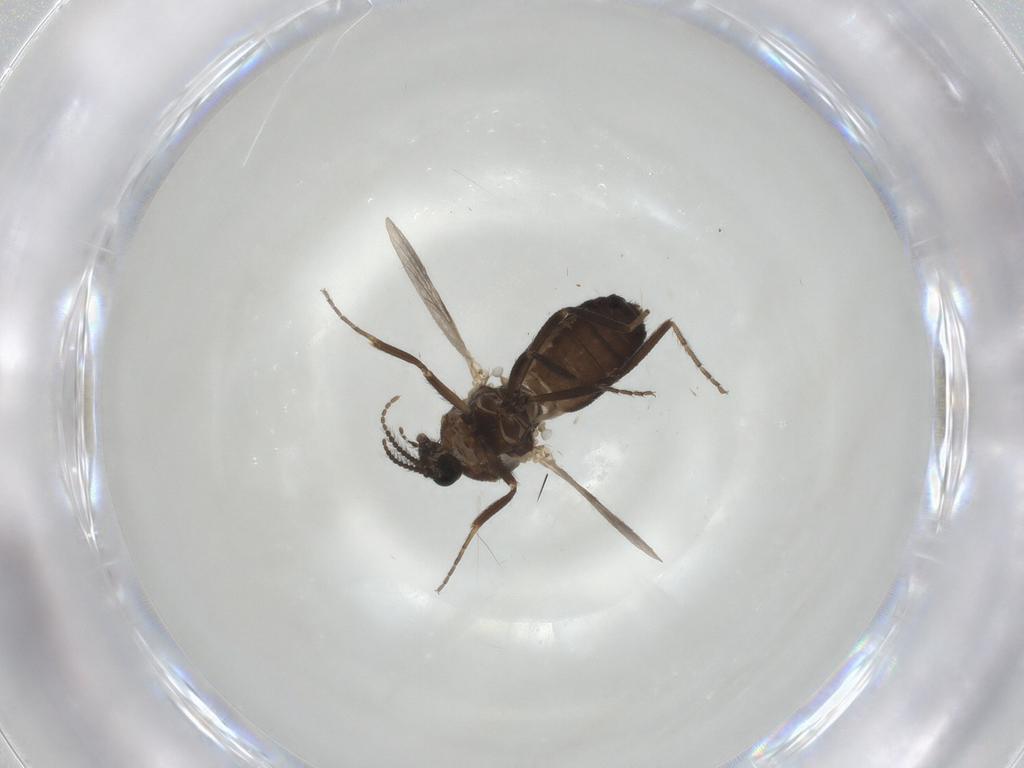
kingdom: Animalia
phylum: Arthropoda
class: Insecta
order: Diptera
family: Ceratopogonidae
